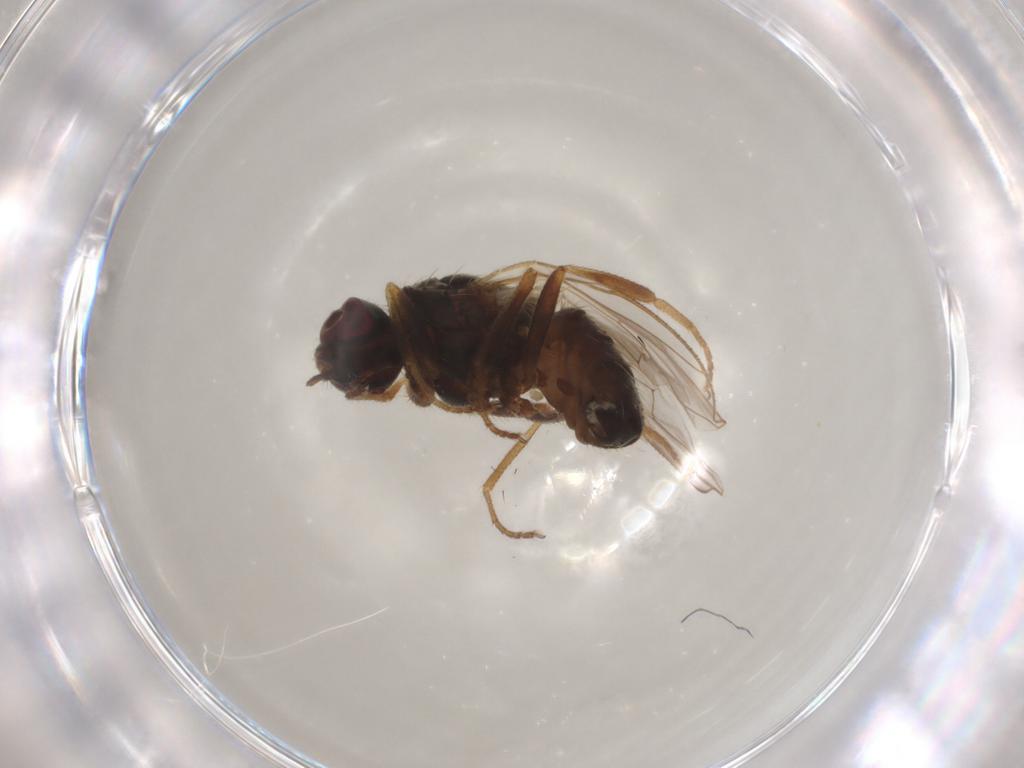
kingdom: Animalia
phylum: Arthropoda
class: Insecta
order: Diptera
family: Muscidae
